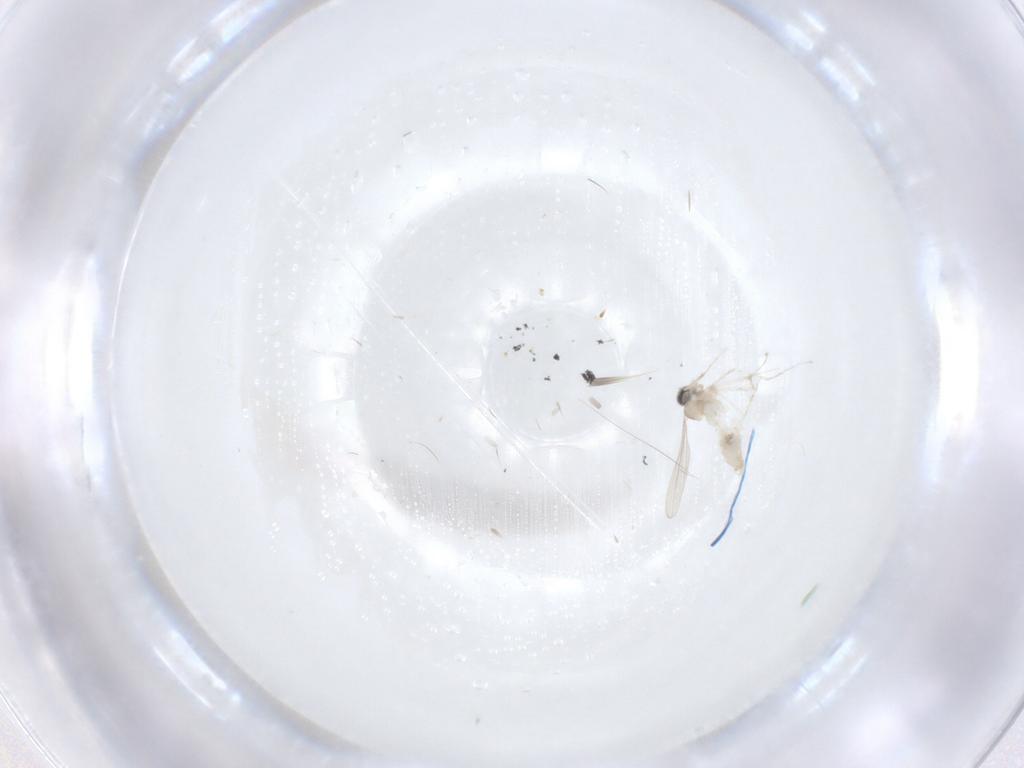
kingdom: Animalia
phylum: Arthropoda
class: Insecta
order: Diptera
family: Cecidomyiidae
